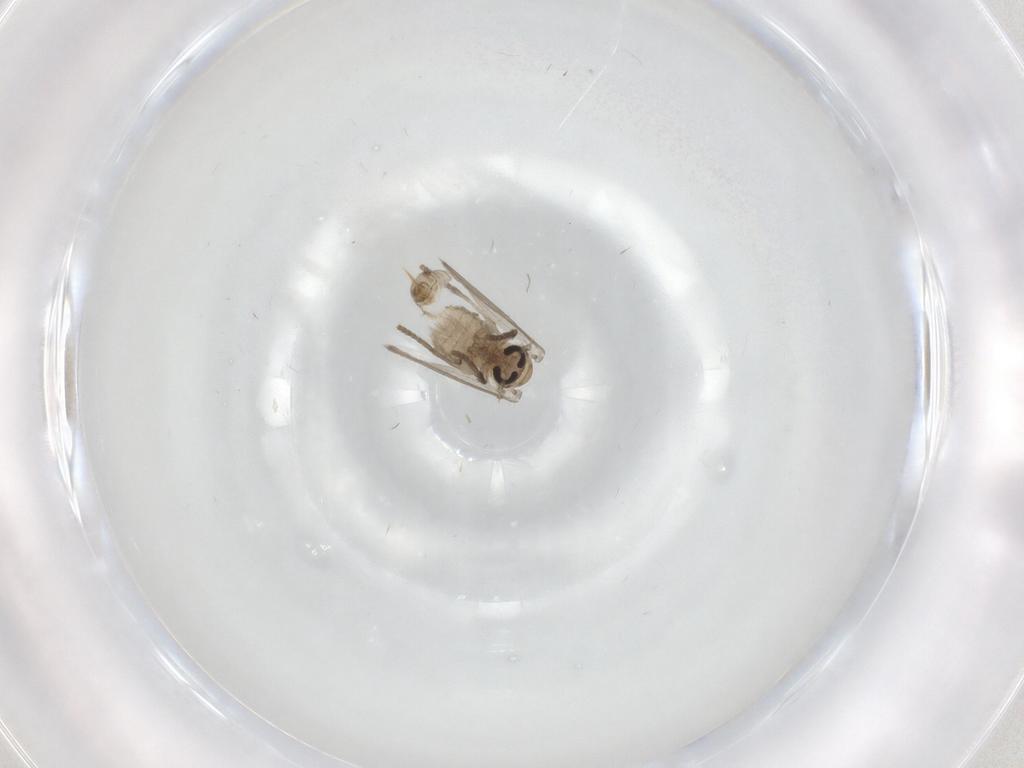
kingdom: Animalia
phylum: Arthropoda
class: Insecta
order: Diptera
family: Psychodidae
